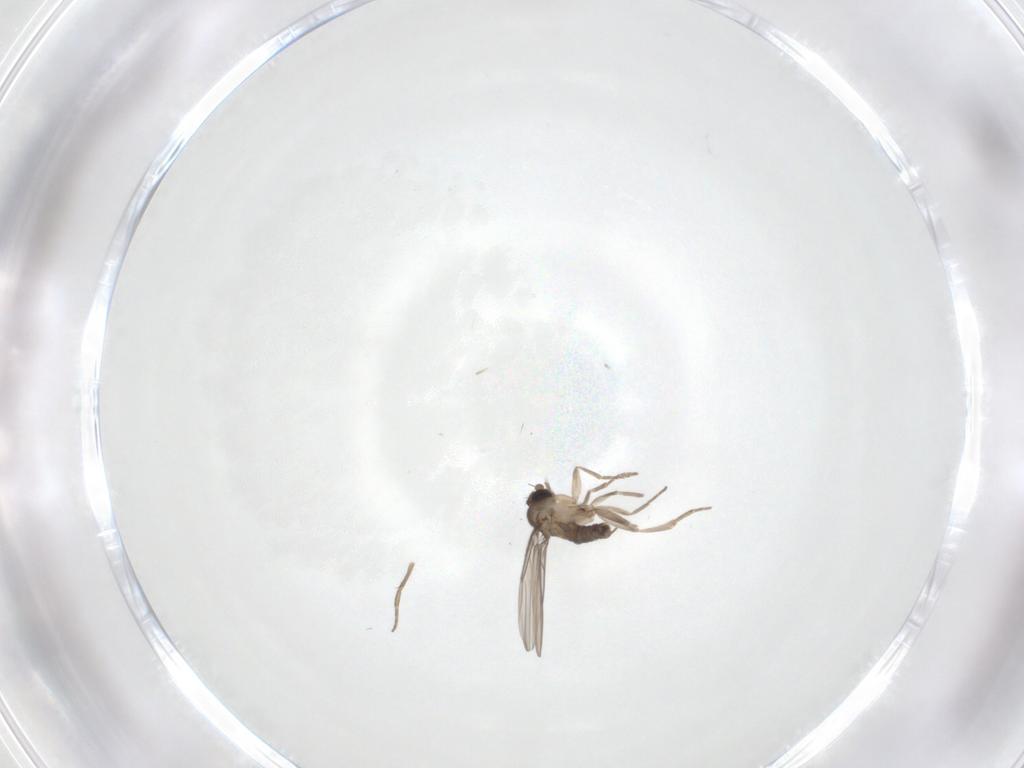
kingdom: Animalia
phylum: Arthropoda
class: Insecta
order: Diptera
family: Phoridae
